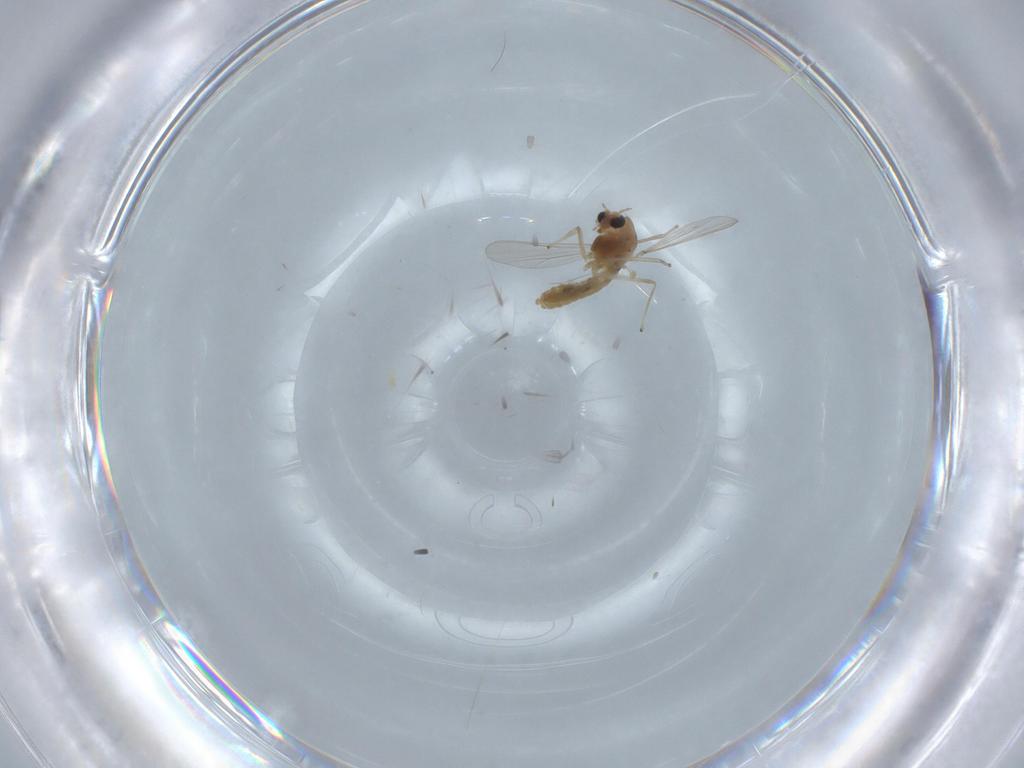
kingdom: Animalia
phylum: Arthropoda
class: Insecta
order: Diptera
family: Chironomidae
